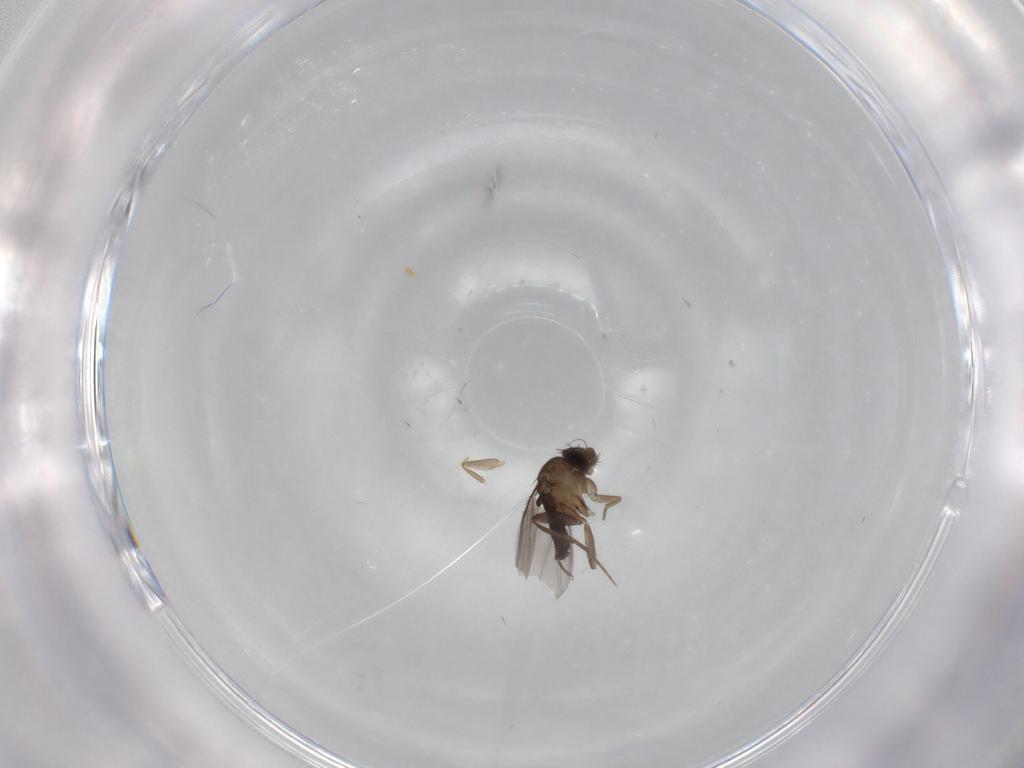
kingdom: Animalia
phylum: Arthropoda
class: Insecta
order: Diptera
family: Phoridae
